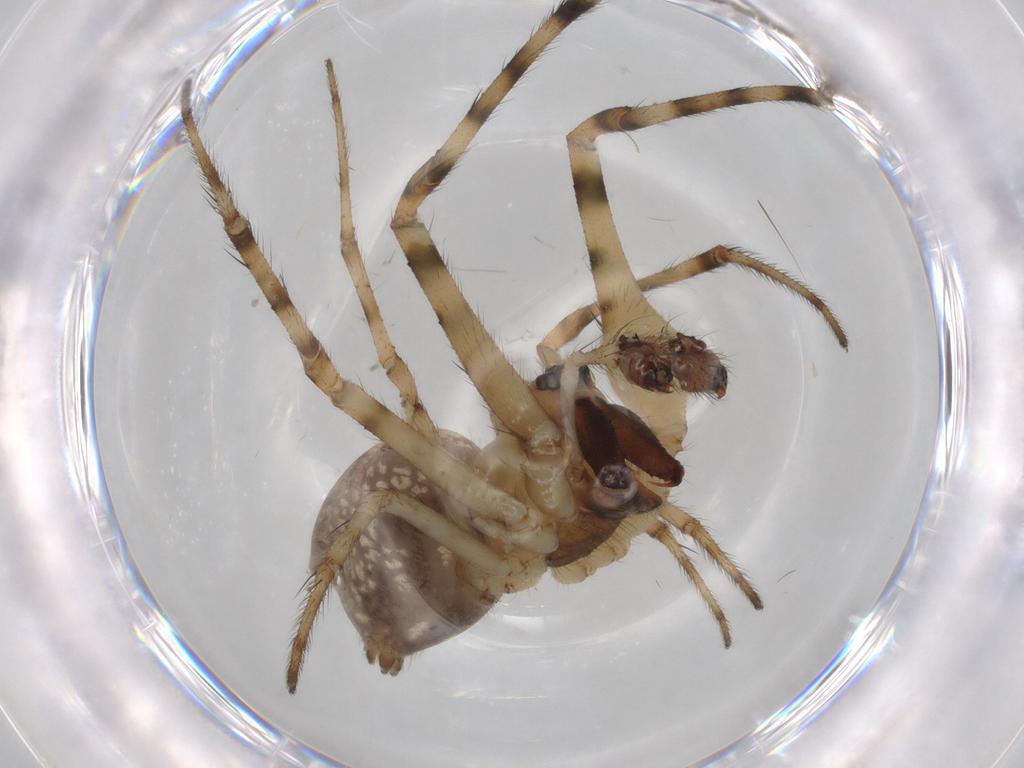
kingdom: Animalia
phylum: Arthropoda
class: Arachnida
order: Araneae
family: Tetragnathidae
